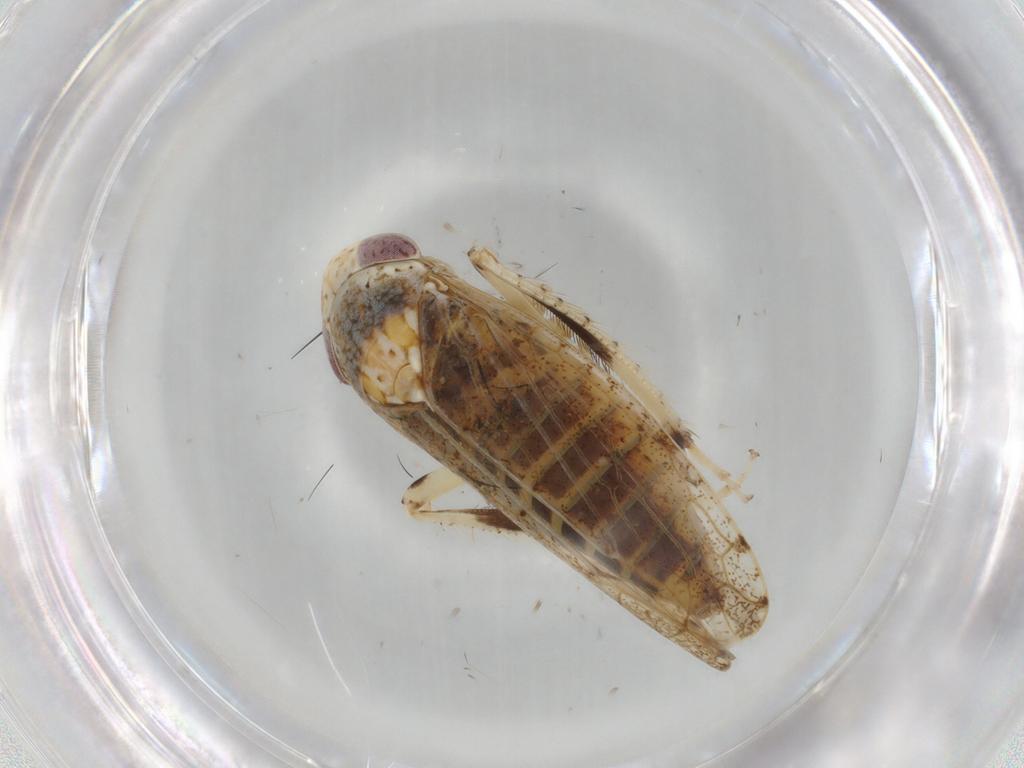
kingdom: Animalia
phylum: Arthropoda
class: Insecta
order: Hemiptera
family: Cicadellidae
